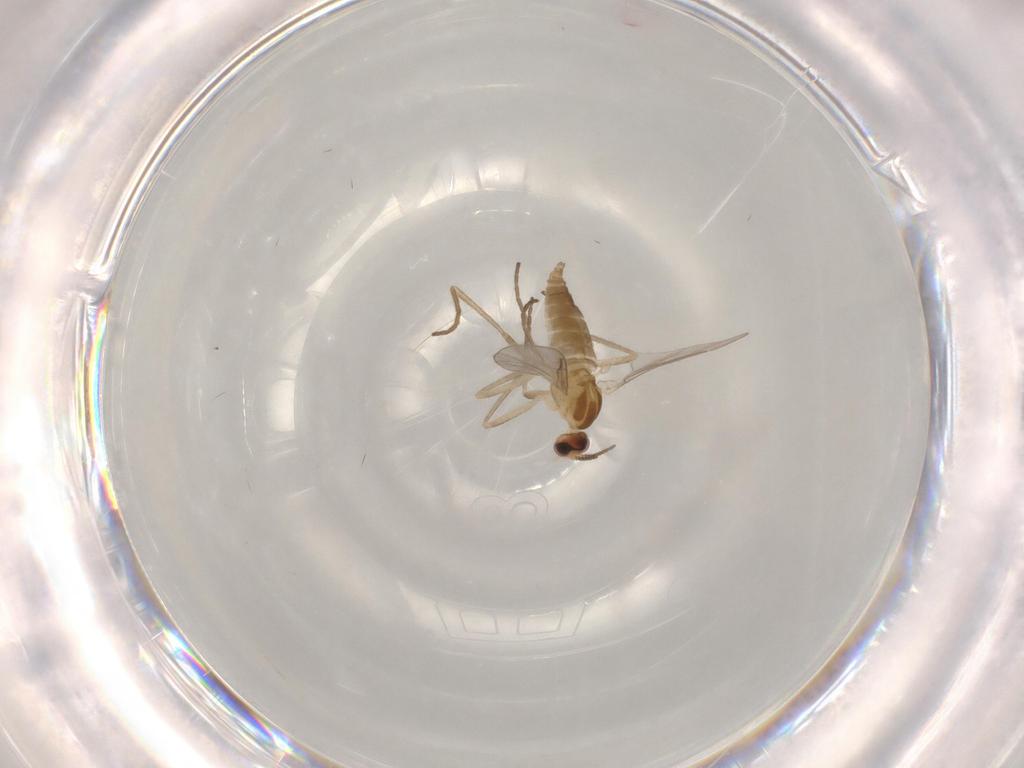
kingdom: Animalia
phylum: Arthropoda
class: Insecta
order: Diptera
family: Cecidomyiidae
